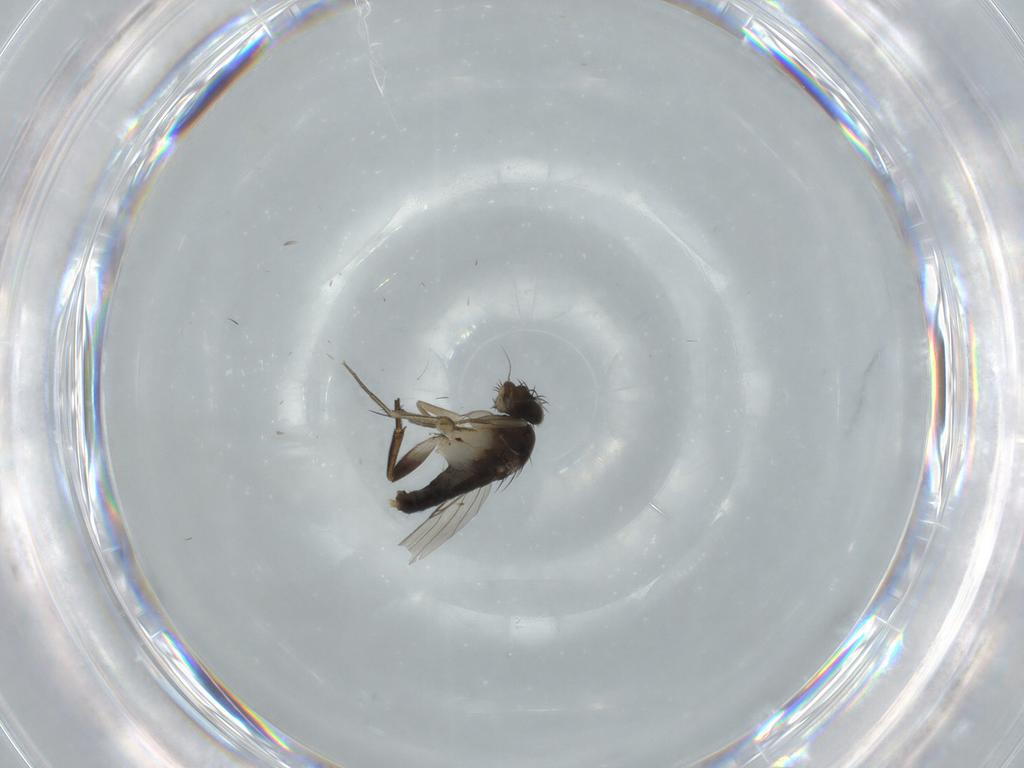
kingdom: Animalia
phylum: Arthropoda
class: Insecta
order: Diptera
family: Phoridae
